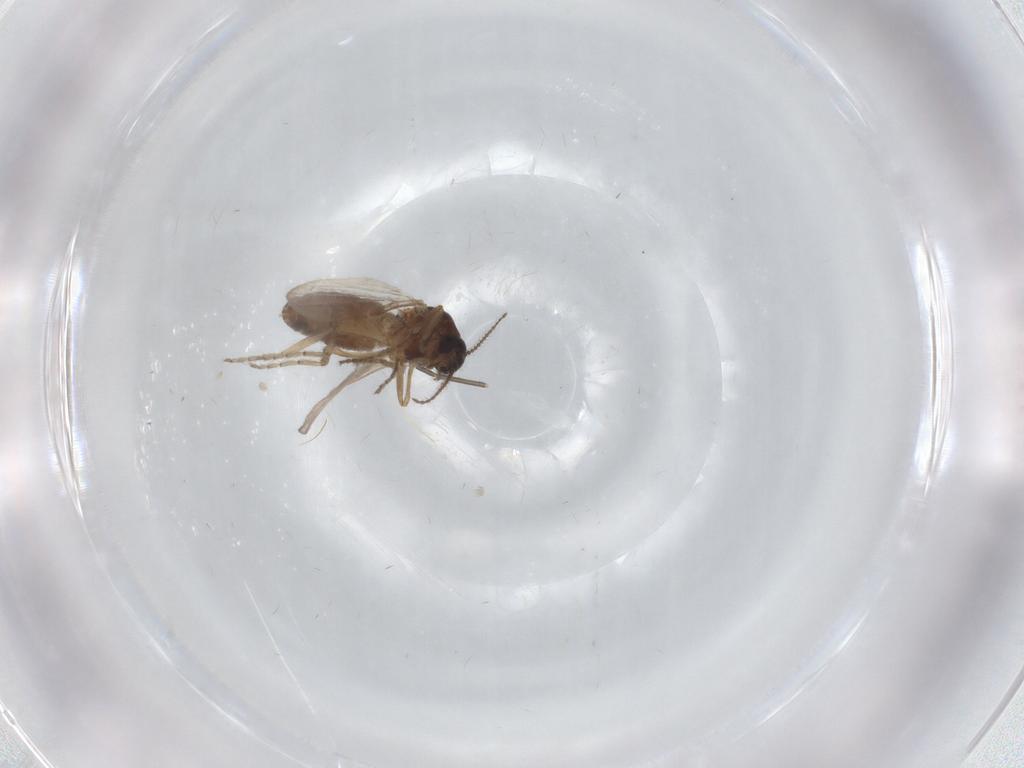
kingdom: Animalia
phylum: Arthropoda
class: Insecta
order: Diptera
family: Ceratopogonidae
